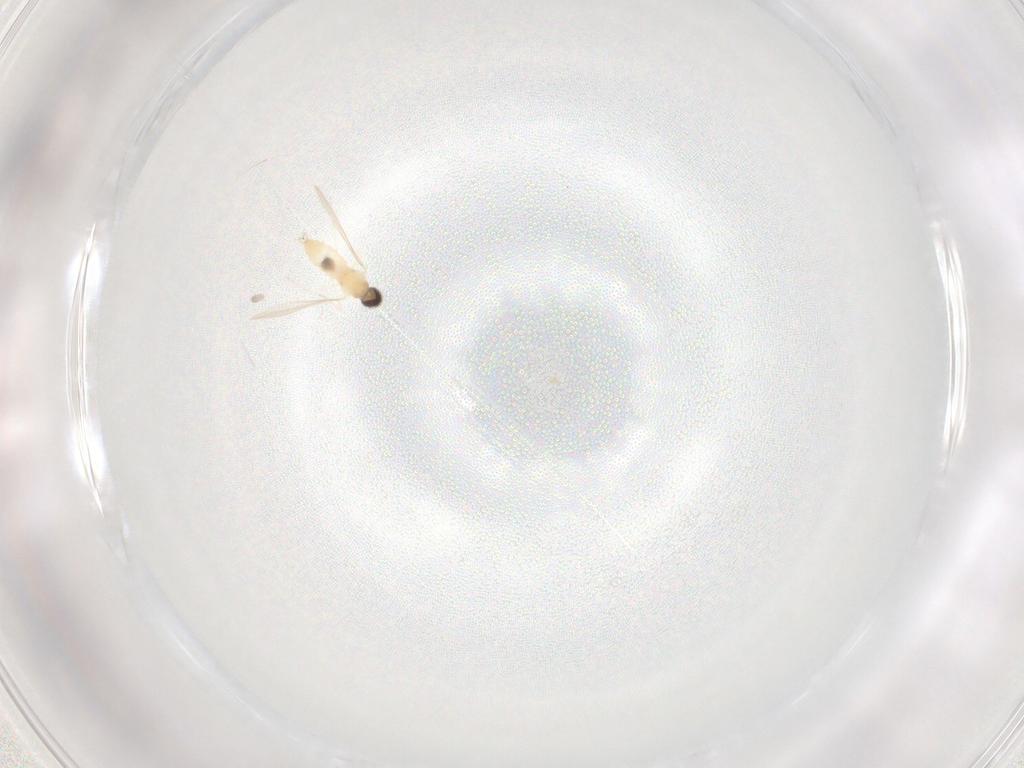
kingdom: Animalia
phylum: Arthropoda
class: Insecta
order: Diptera
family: Cecidomyiidae
